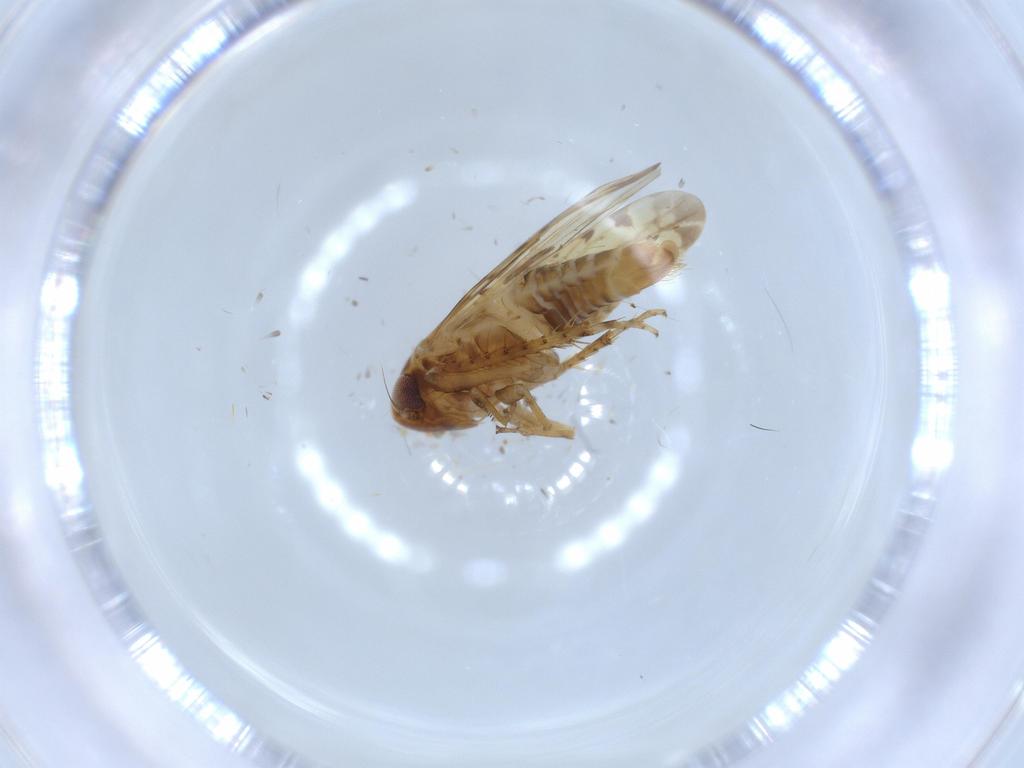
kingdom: Animalia
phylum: Arthropoda
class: Insecta
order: Hemiptera
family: Cicadellidae
